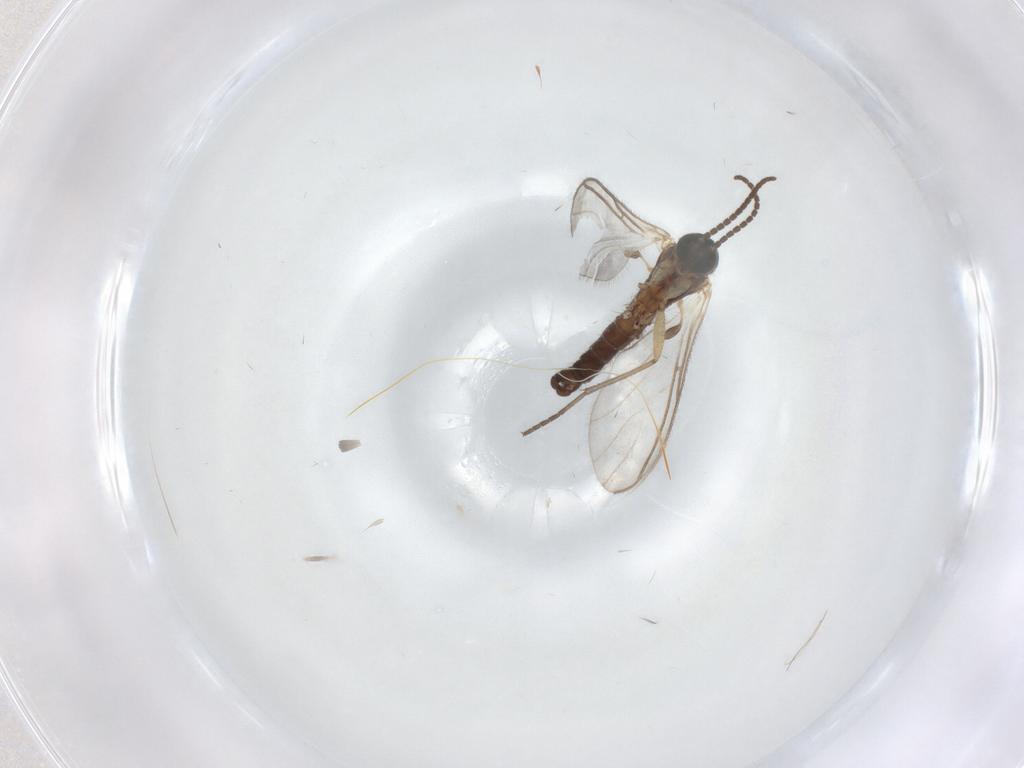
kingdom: Animalia
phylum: Arthropoda
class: Insecta
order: Diptera
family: Sciaridae
